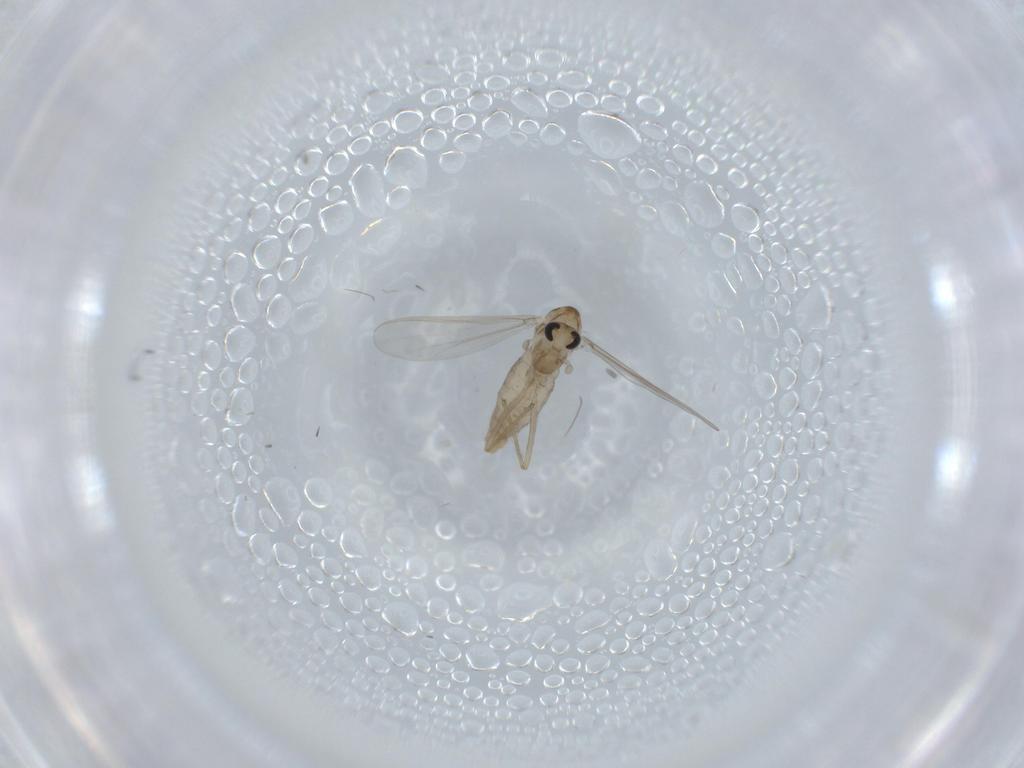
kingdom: Animalia
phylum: Arthropoda
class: Insecta
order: Diptera
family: Chironomidae
